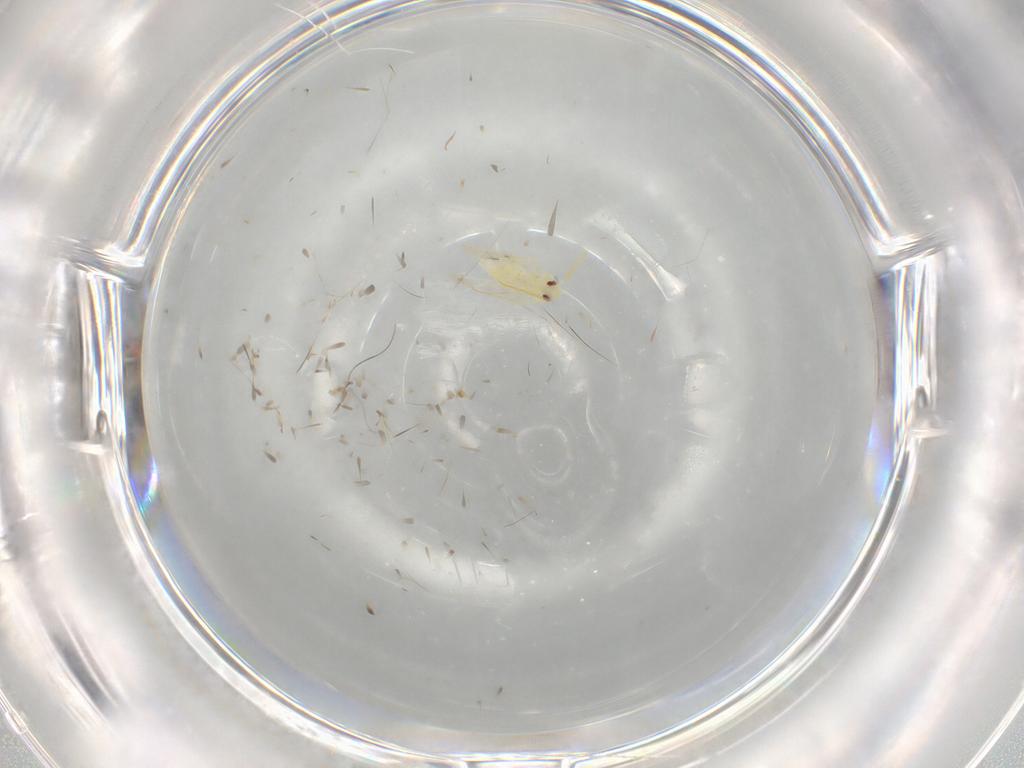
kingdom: Animalia
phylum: Arthropoda
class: Insecta
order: Hemiptera
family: Aleyrodidae
